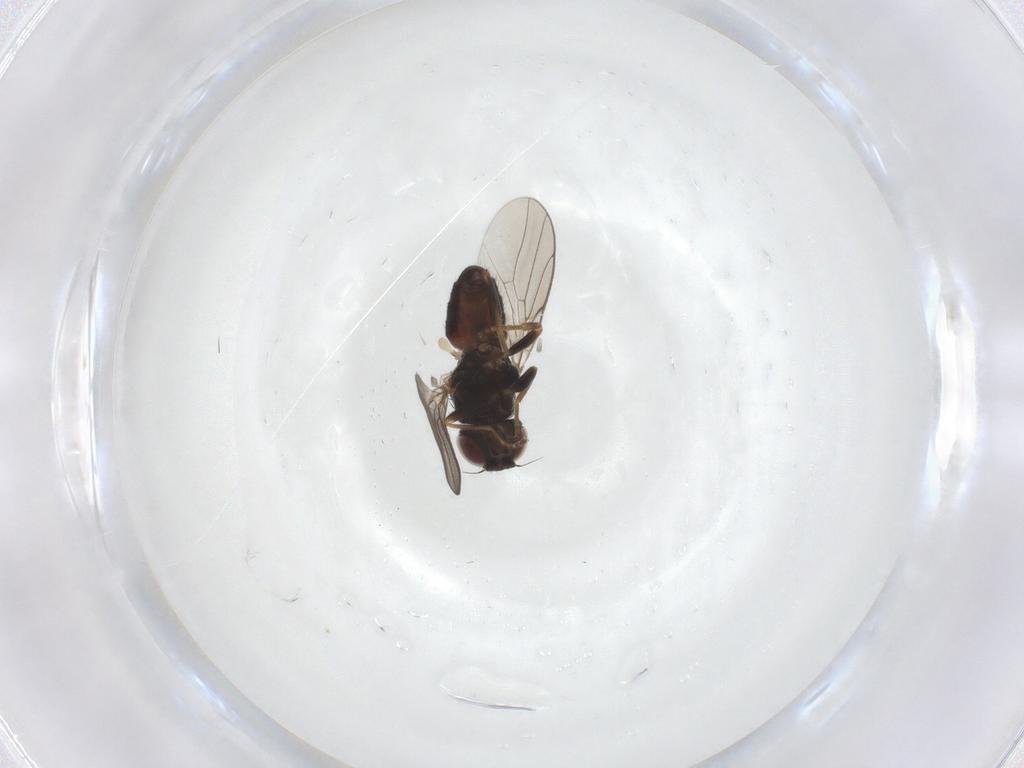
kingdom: Animalia
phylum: Arthropoda
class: Insecta
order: Diptera
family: Chloropidae
